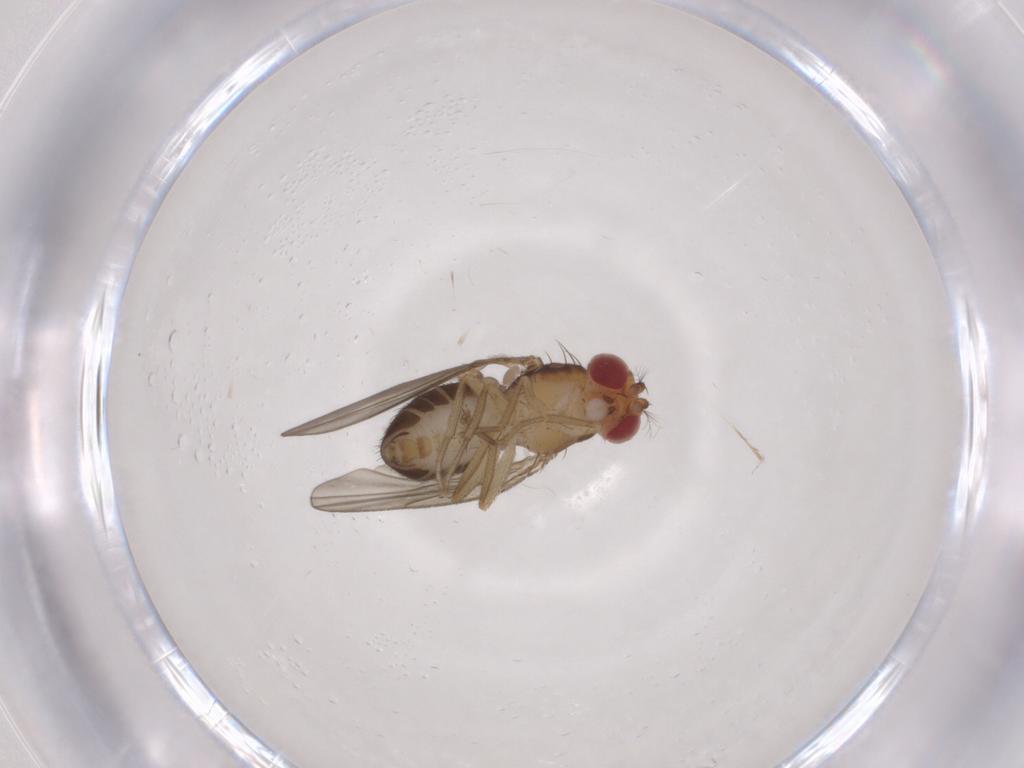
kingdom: Animalia
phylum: Arthropoda
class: Insecta
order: Diptera
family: Drosophilidae
